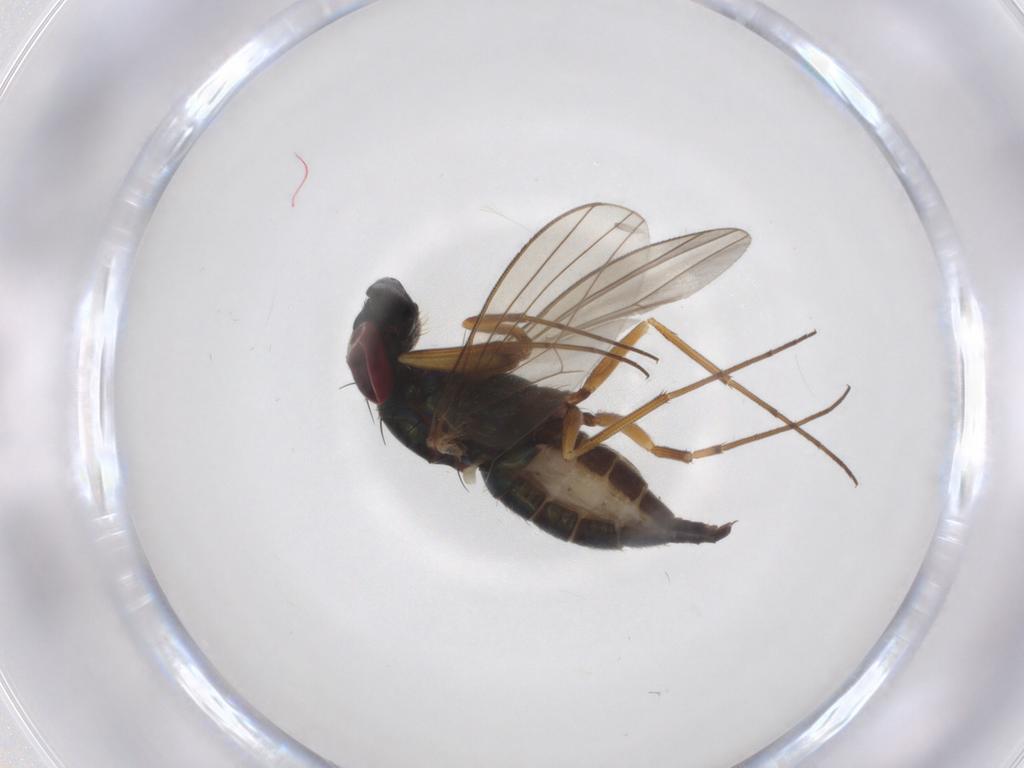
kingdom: Animalia
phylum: Arthropoda
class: Insecta
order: Diptera
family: Dolichopodidae
